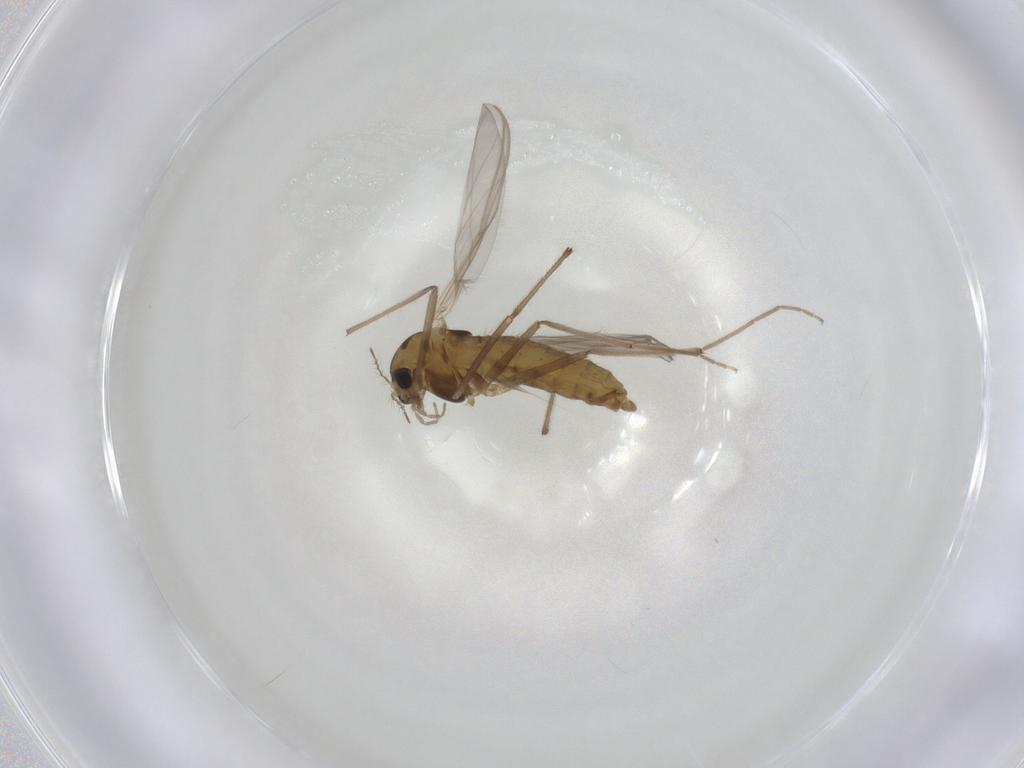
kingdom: Animalia
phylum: Arthropoda
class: Insecta
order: Diptera
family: Chironomidae
